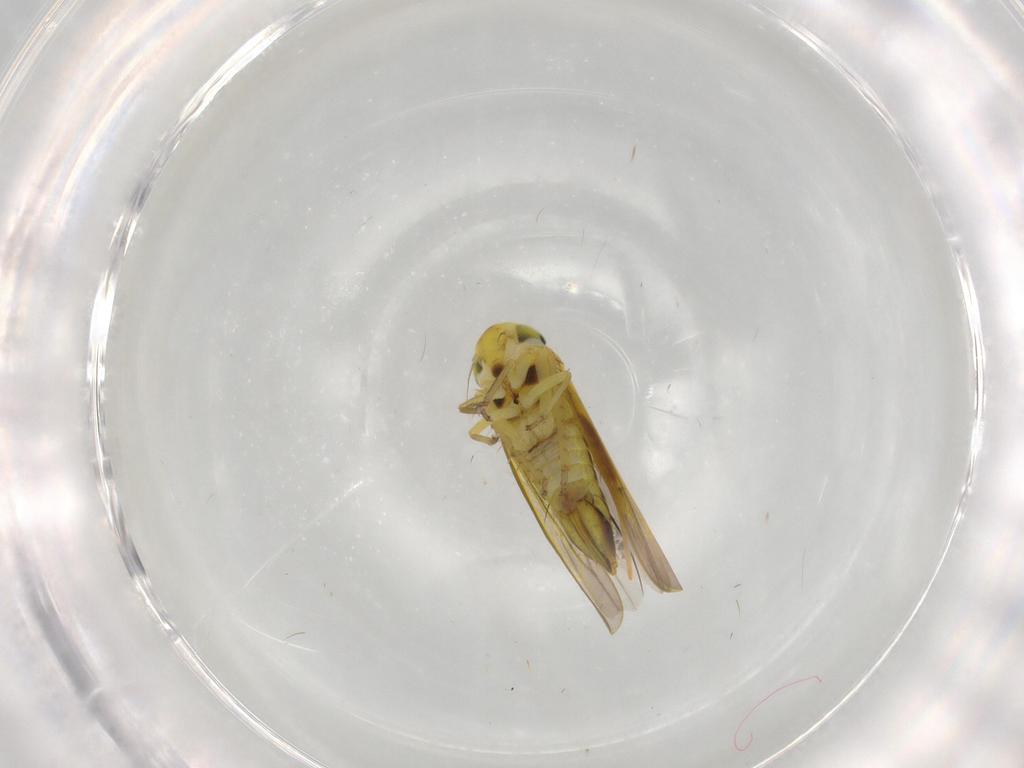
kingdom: Animalia
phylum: Arthropoda
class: Insecta
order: Hemiptera
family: Cicadellidae
